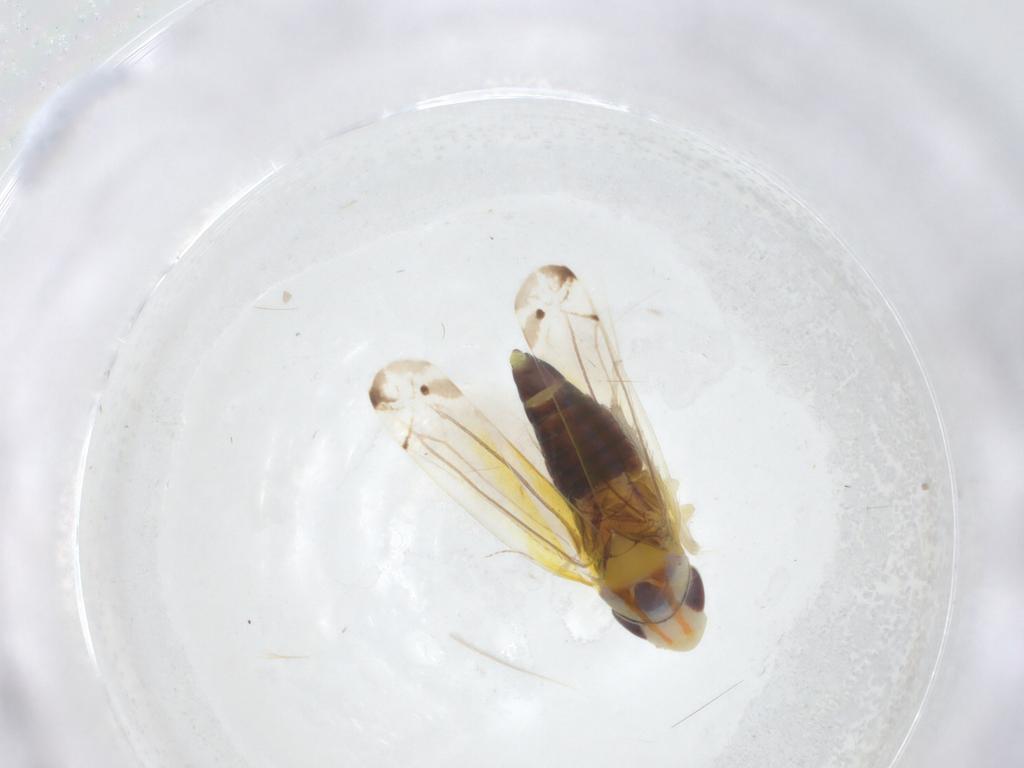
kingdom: Animalia
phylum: Arthropoda
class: Insecta
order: Hemiptera
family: Cicadellidae
